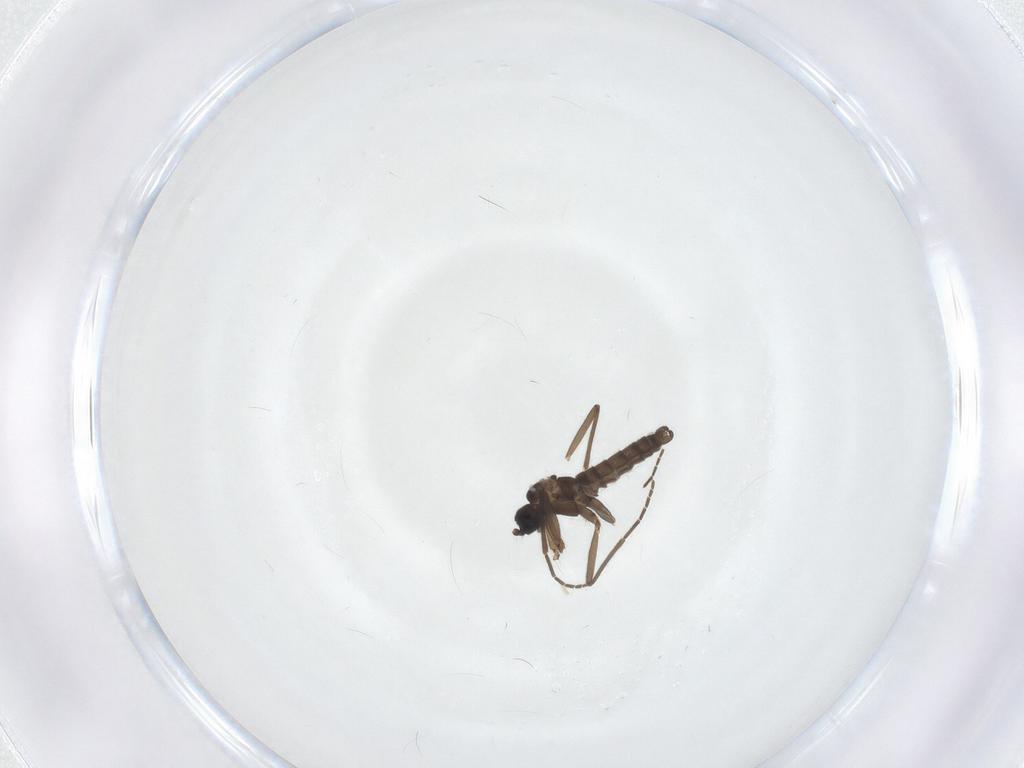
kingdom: Animalia
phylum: Arthropoda
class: Insecta
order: Diptera
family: Sciaridae
